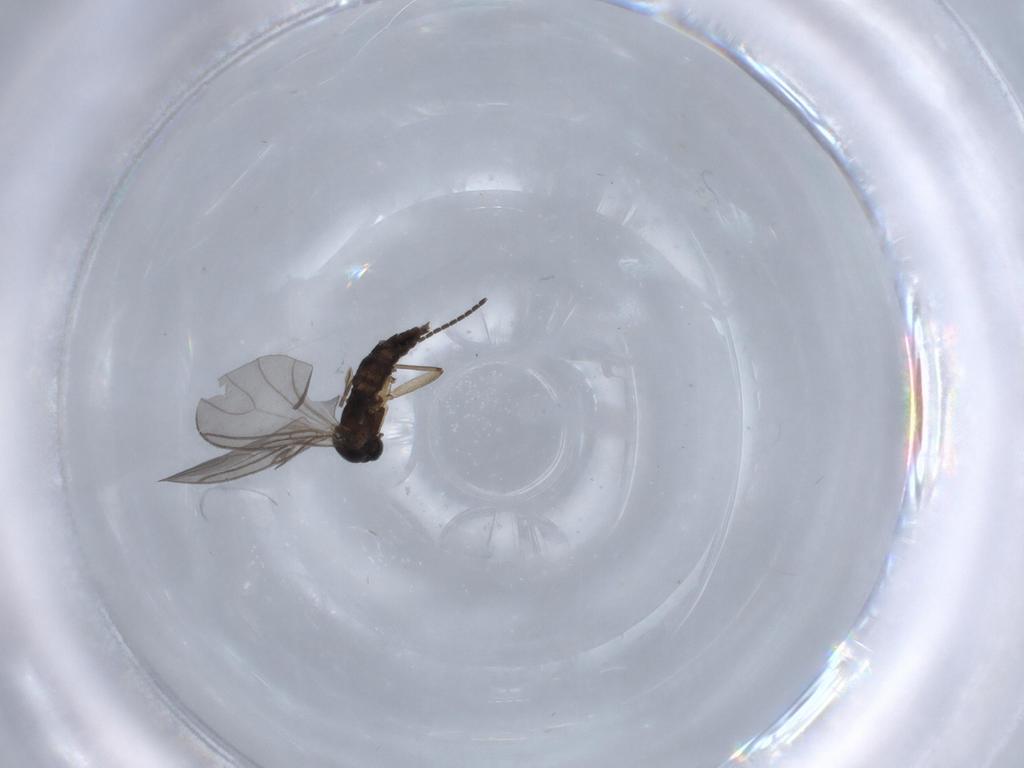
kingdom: Animalia
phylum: Arthropoda
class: Insecta
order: Diptera
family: Sciaridae
